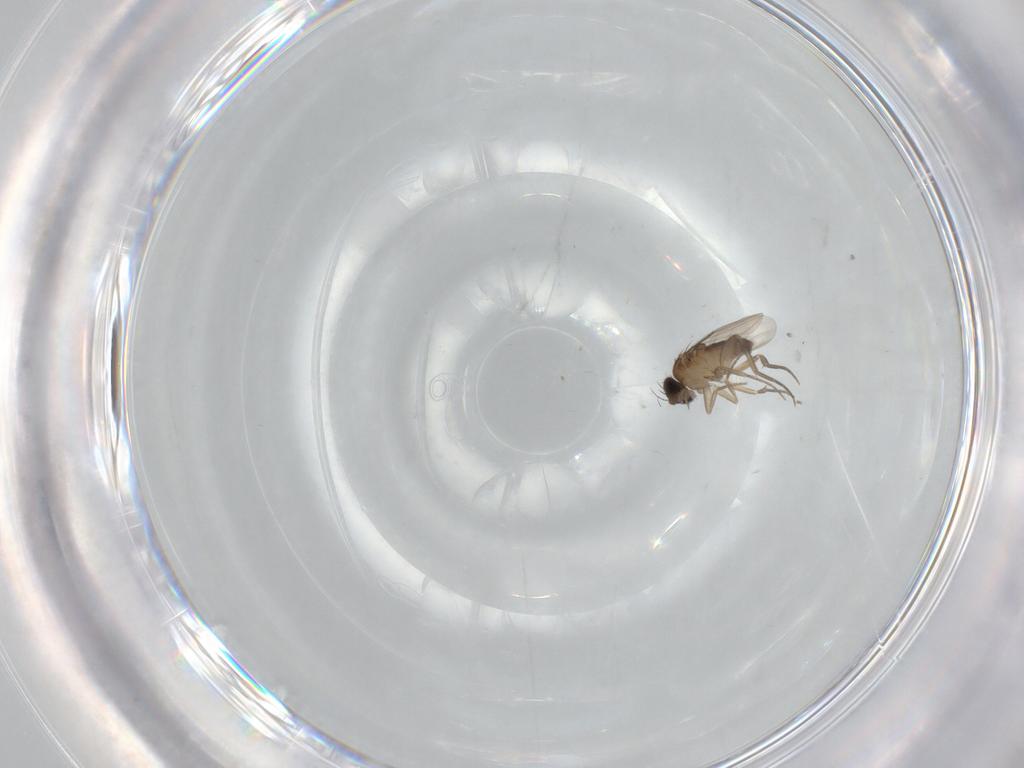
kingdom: Animalia
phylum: Arthropoda
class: Insecta
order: Diptera
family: Phoridae
